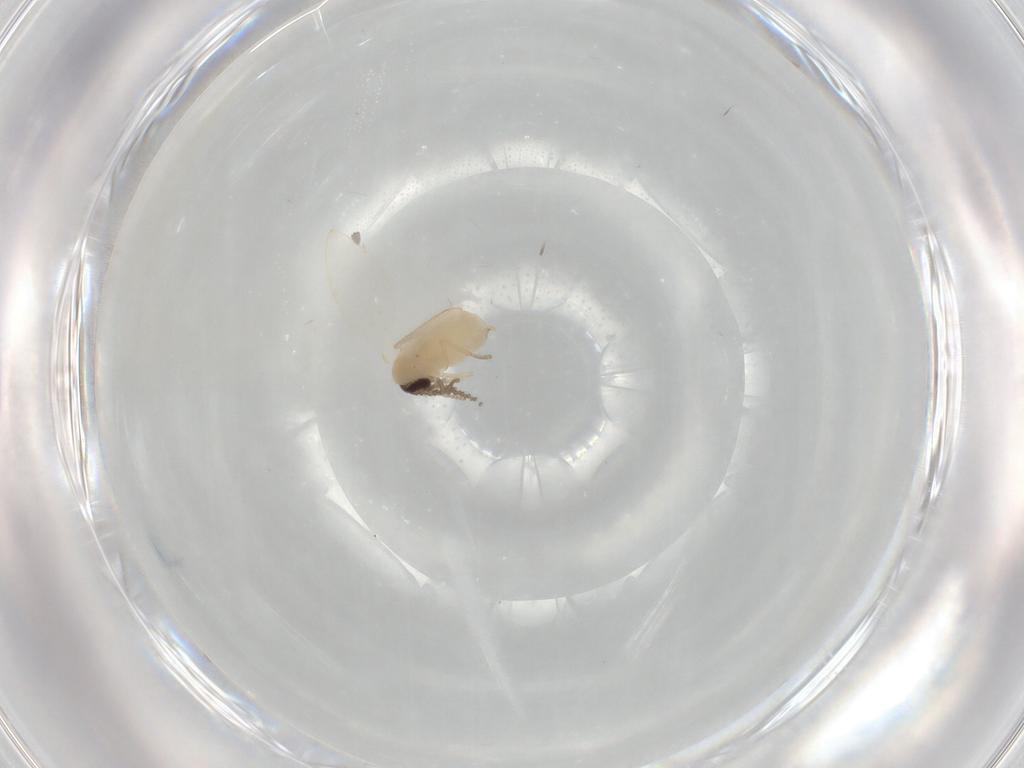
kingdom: Animalia
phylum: Arthropoda
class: Insecta
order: Diptera
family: Psychodidae
